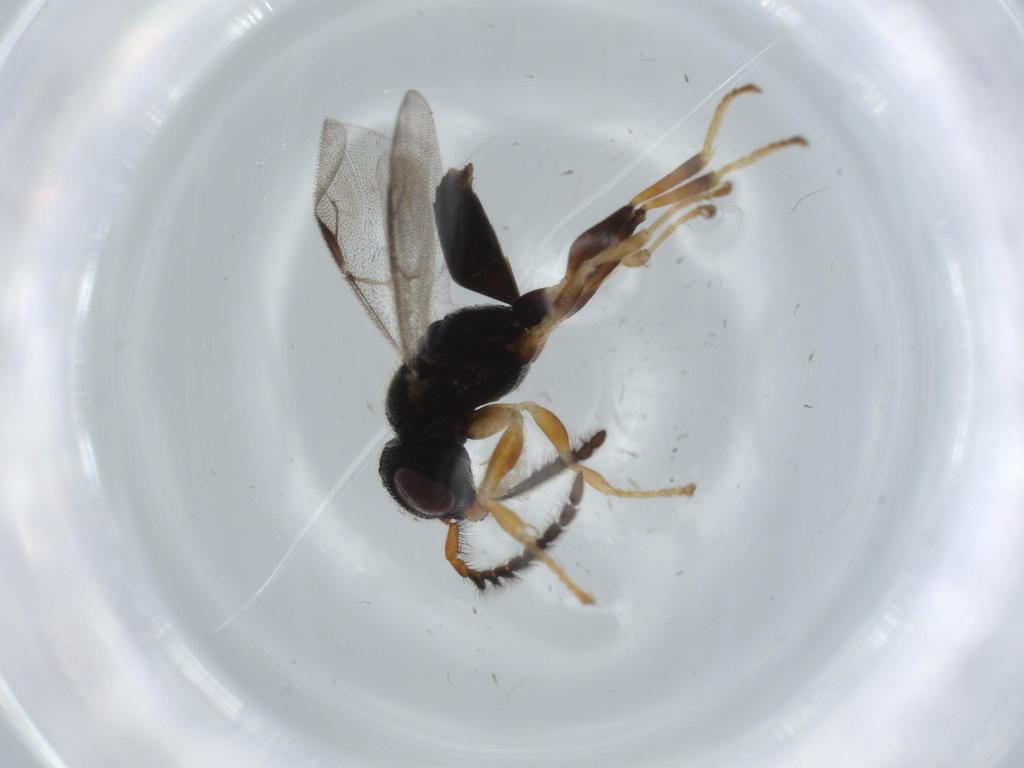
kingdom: Animalia
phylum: Arthropoda
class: Insecta
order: Hymenoptera
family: Dryinidae
